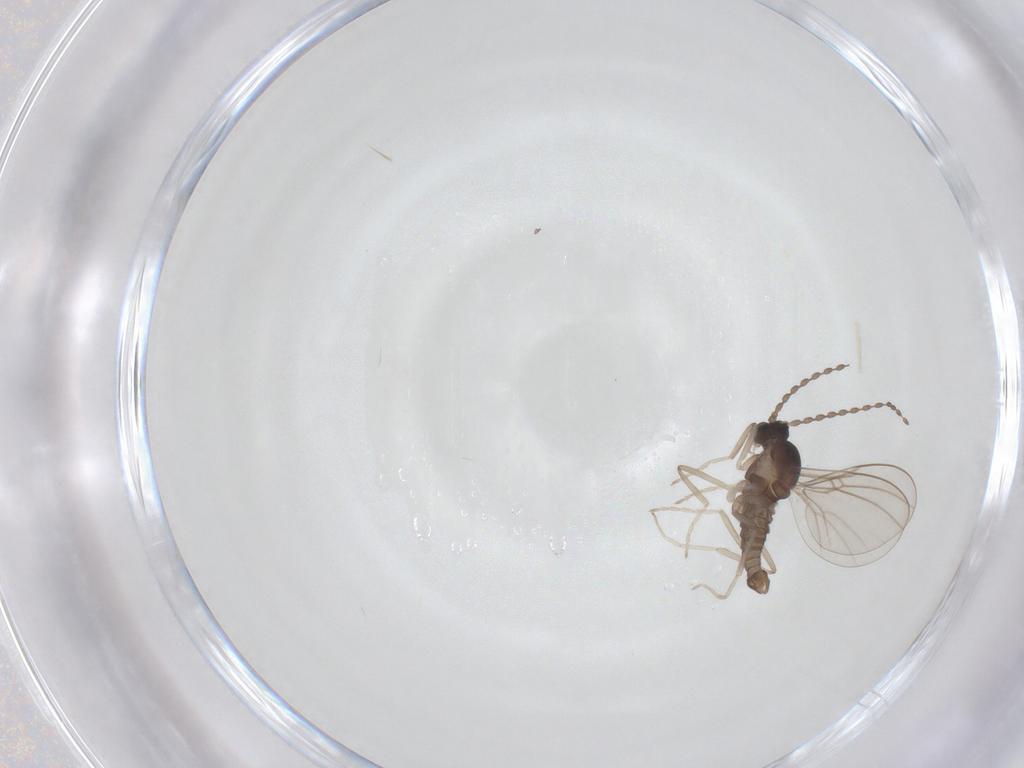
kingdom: Animalia
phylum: Arthropoda
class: Insecta
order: Diptera
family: Cecidomyiidae
